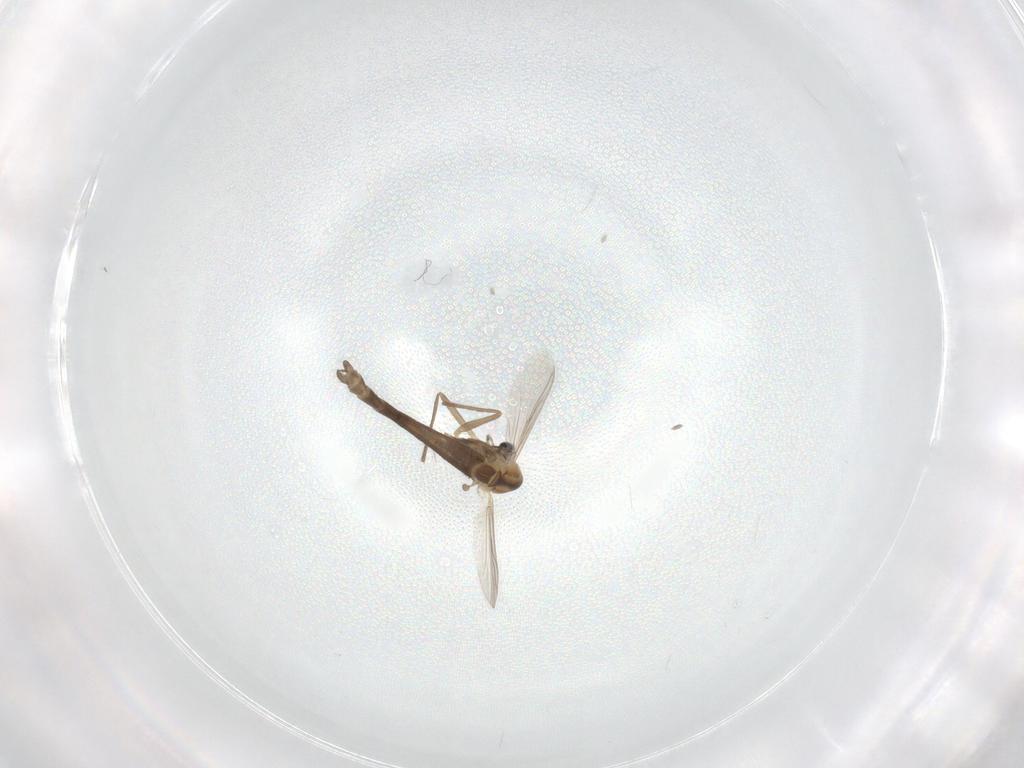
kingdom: Animalia
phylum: Arthropoda
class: Insecta
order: Diptera
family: Chironomidae
